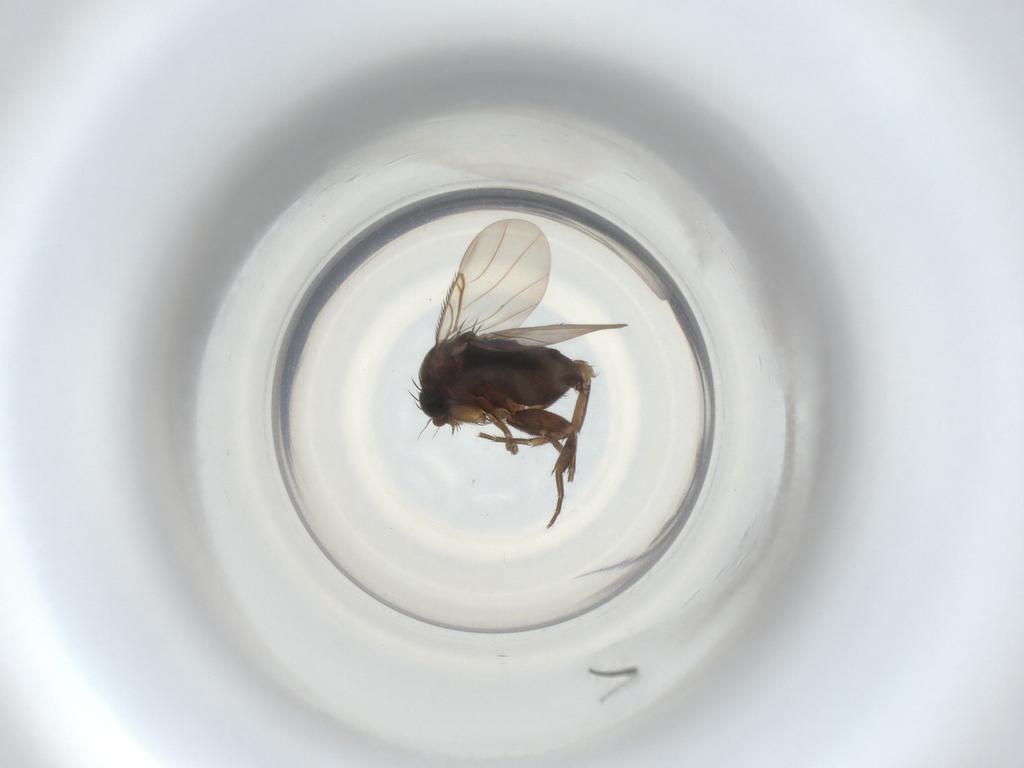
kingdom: Animalia
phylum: Arthropoda
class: Insecta
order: Diptera
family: Phoridae
